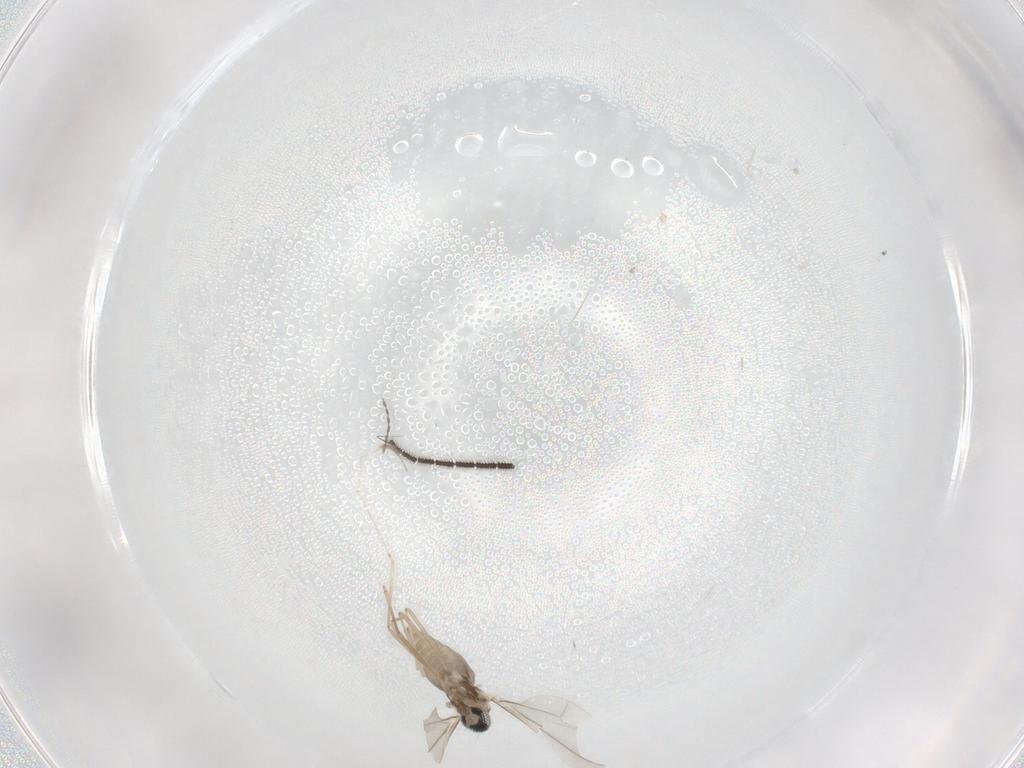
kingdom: Animalia
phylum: Arthropoda
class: Insecta
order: Diptera
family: Cecidomyiidae
